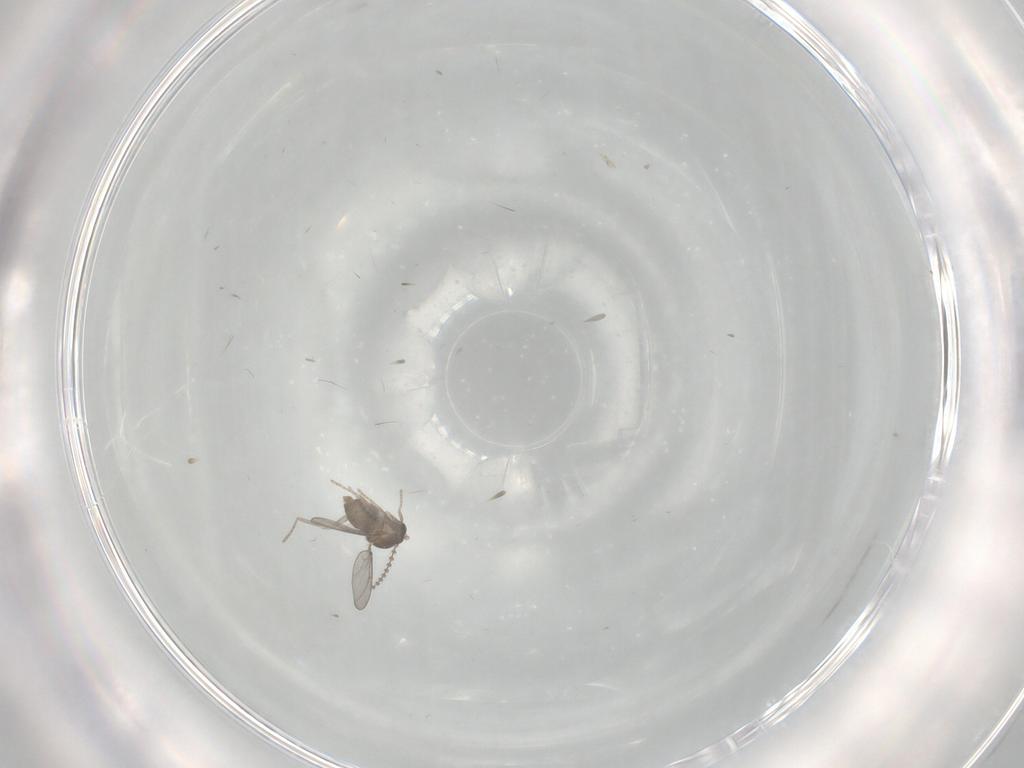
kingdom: Animalia
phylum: Arthropoda
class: Insecta
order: Diptera
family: Cecidomyiidae
